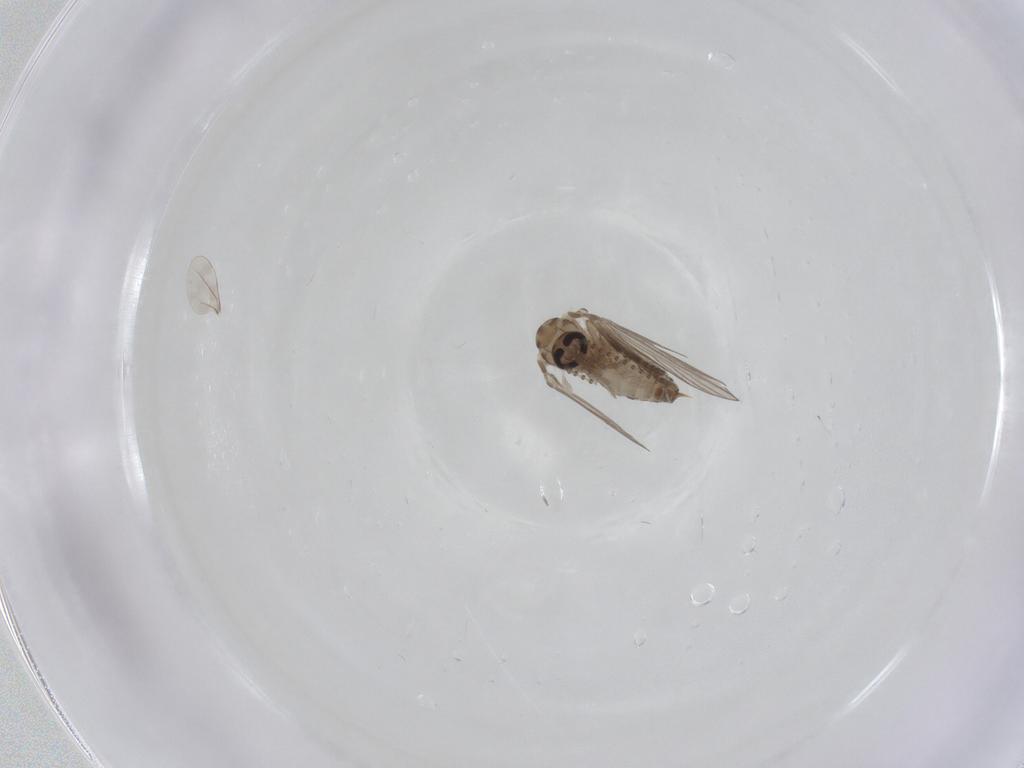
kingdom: Animalia
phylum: Arthropoda
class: Insecta
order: Diptera
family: Psychodidae
